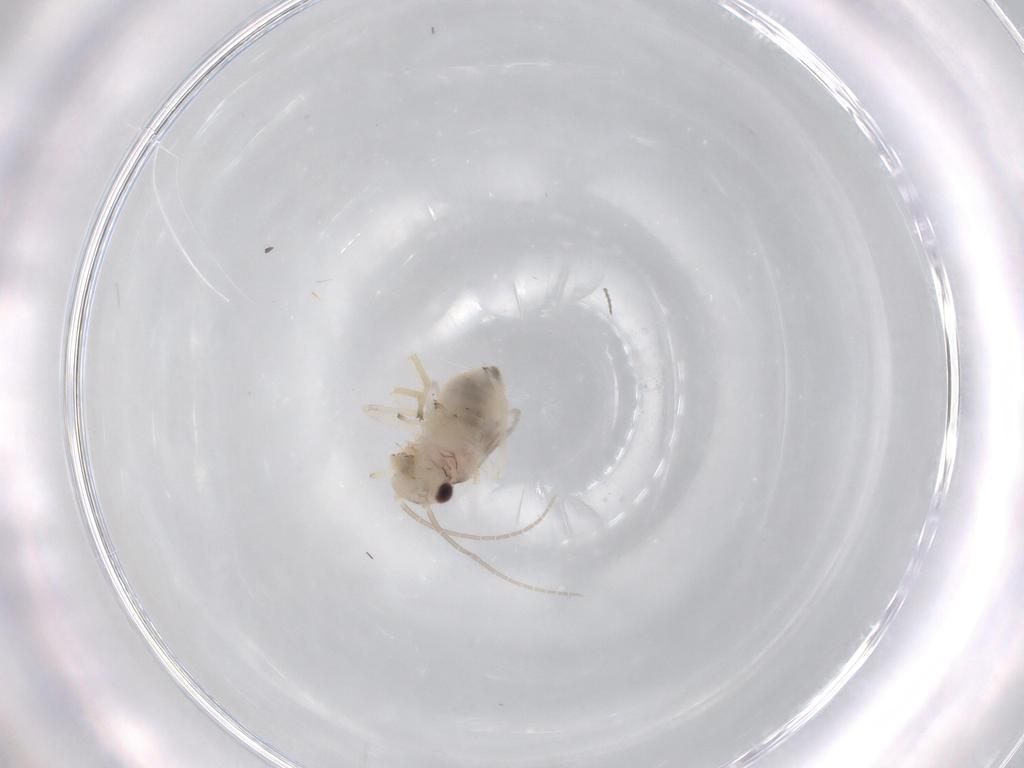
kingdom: Animalia
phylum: Arthropoda
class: Insecta
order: Psocodea
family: Caeciliusidae
